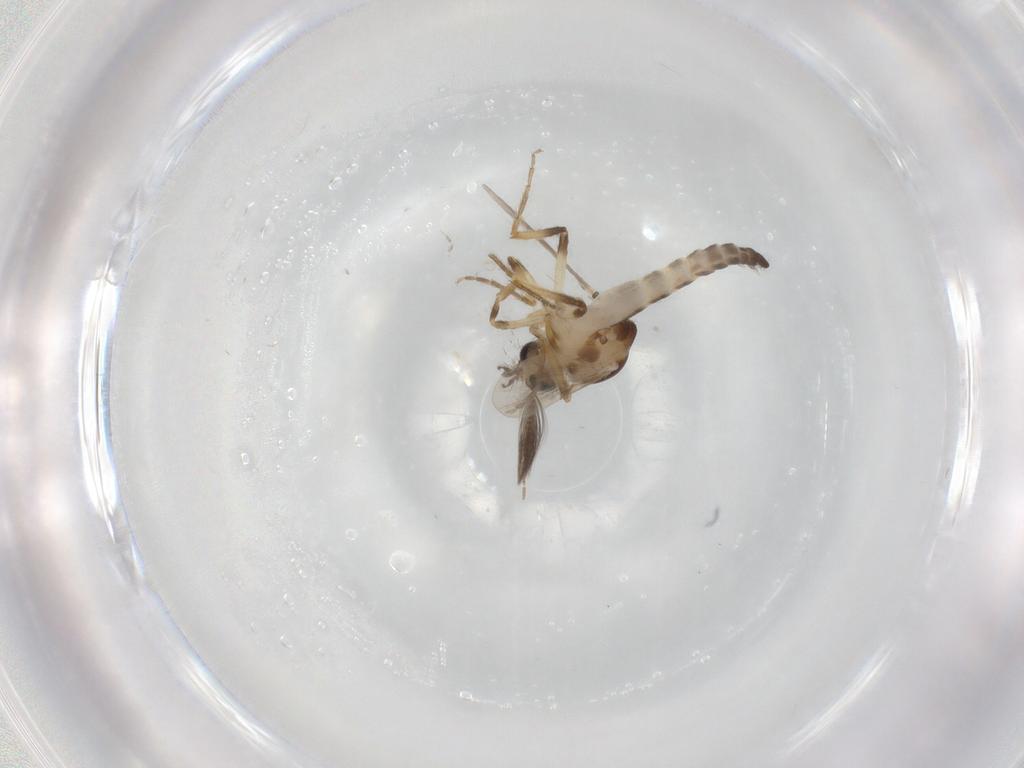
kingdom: Animalia
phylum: Arthropoda
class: Insecta
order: Diptera
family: Ceratopogonidae
